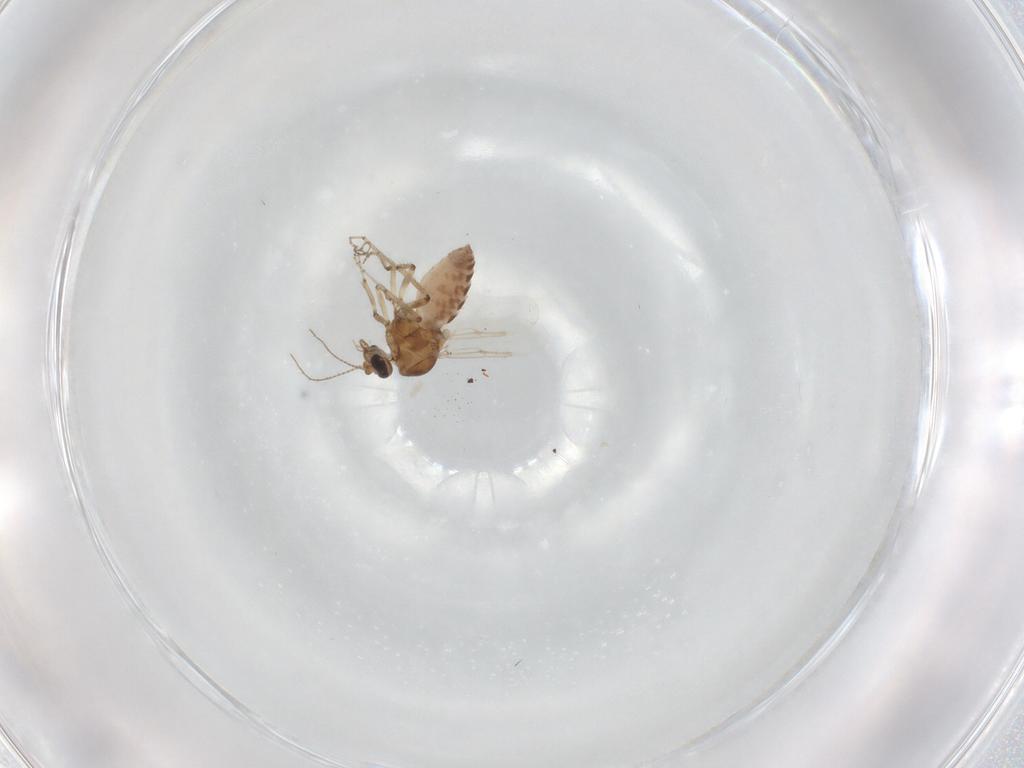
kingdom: Animalia
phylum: Arthropoda
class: Insecta
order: Diptera
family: Ceratopogonidae
